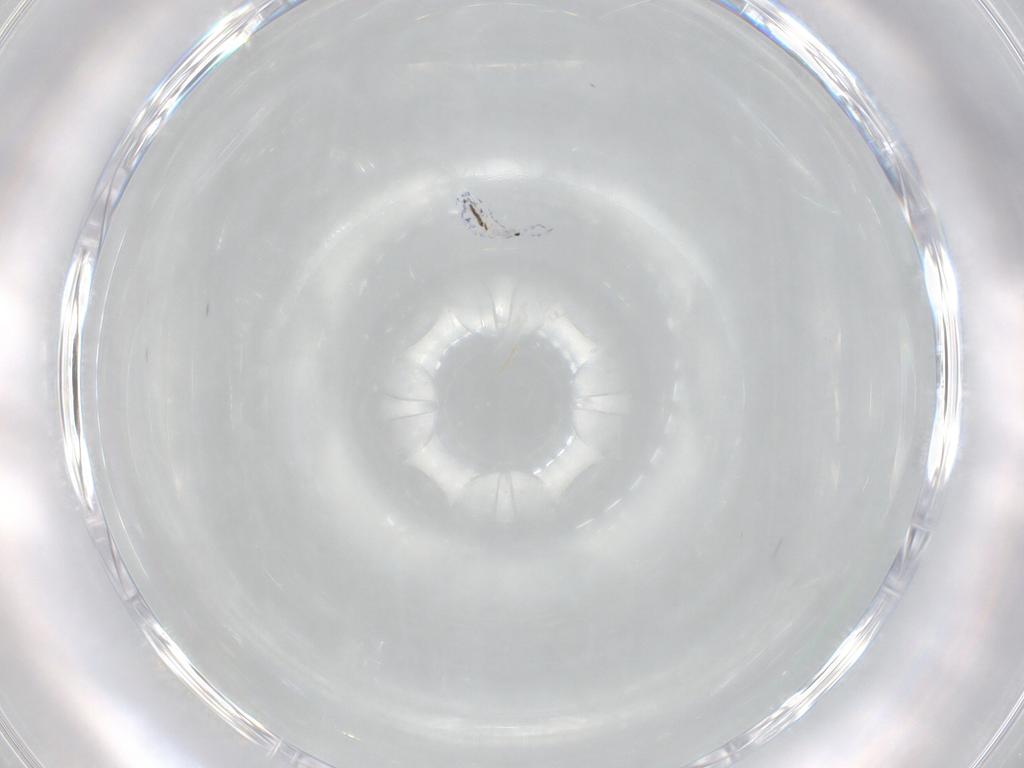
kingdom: Animalia
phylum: Arthropoda
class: Collembola
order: Entomobryomorpha
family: Entomobryidae
